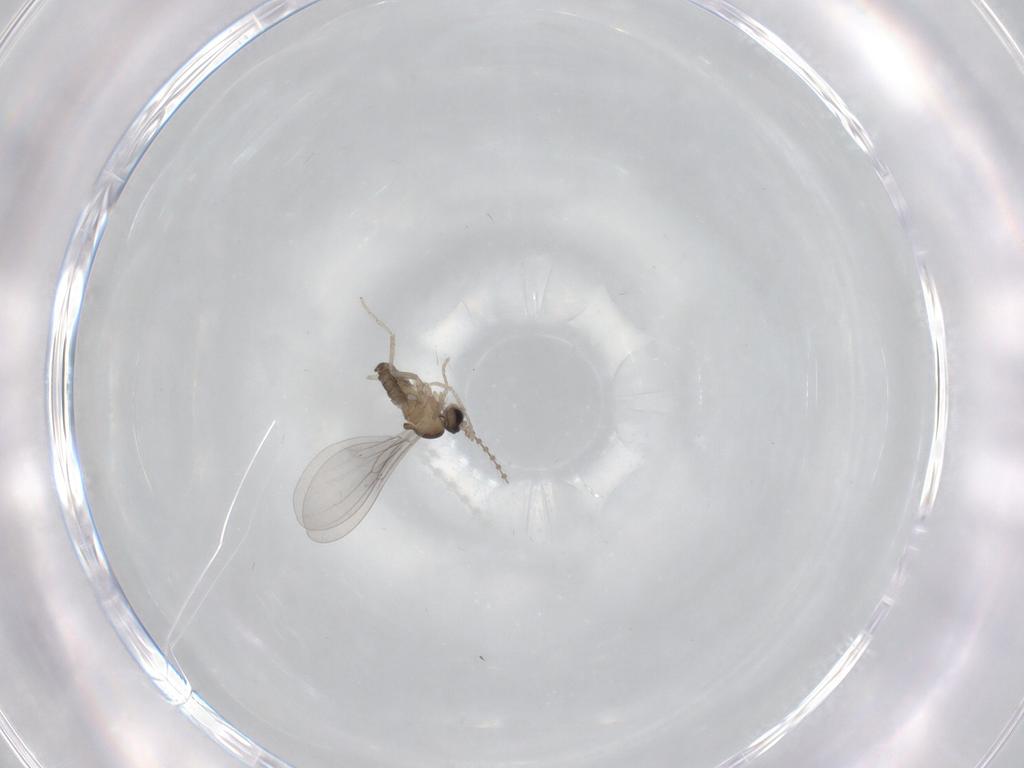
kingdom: Animalia
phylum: Arthropoda
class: Insecta
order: Diptera
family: Cecidomyiidae
